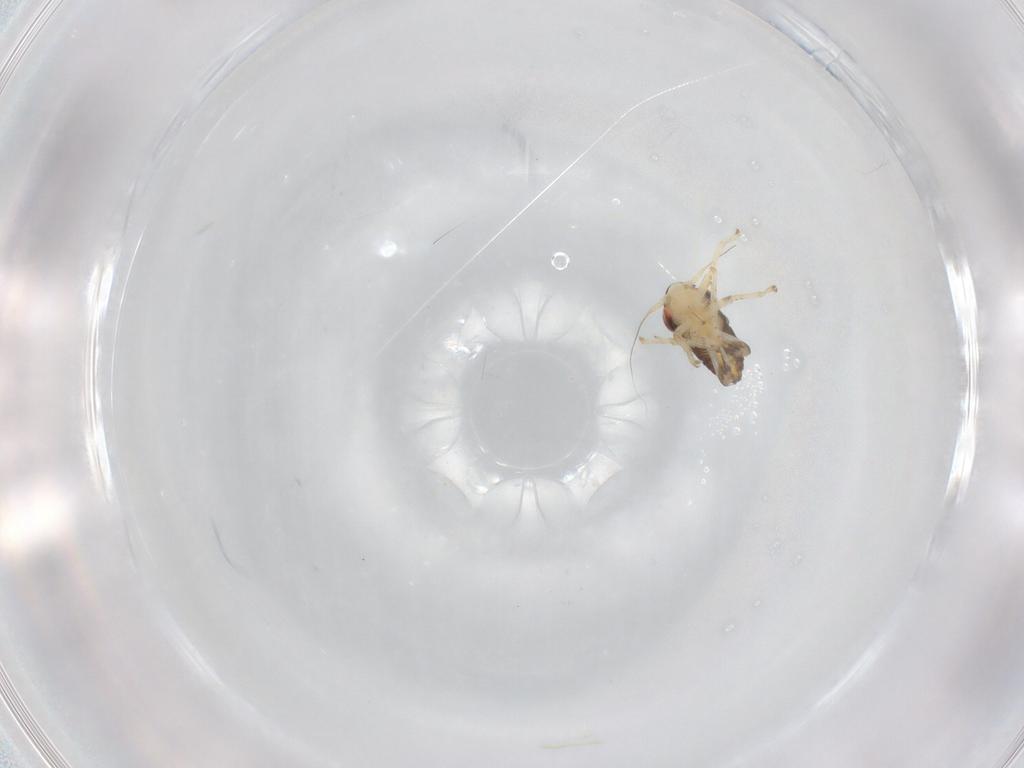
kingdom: Animalia
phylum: Arthropoda
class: Insecta
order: Hemiptera
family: Cicadellidae
